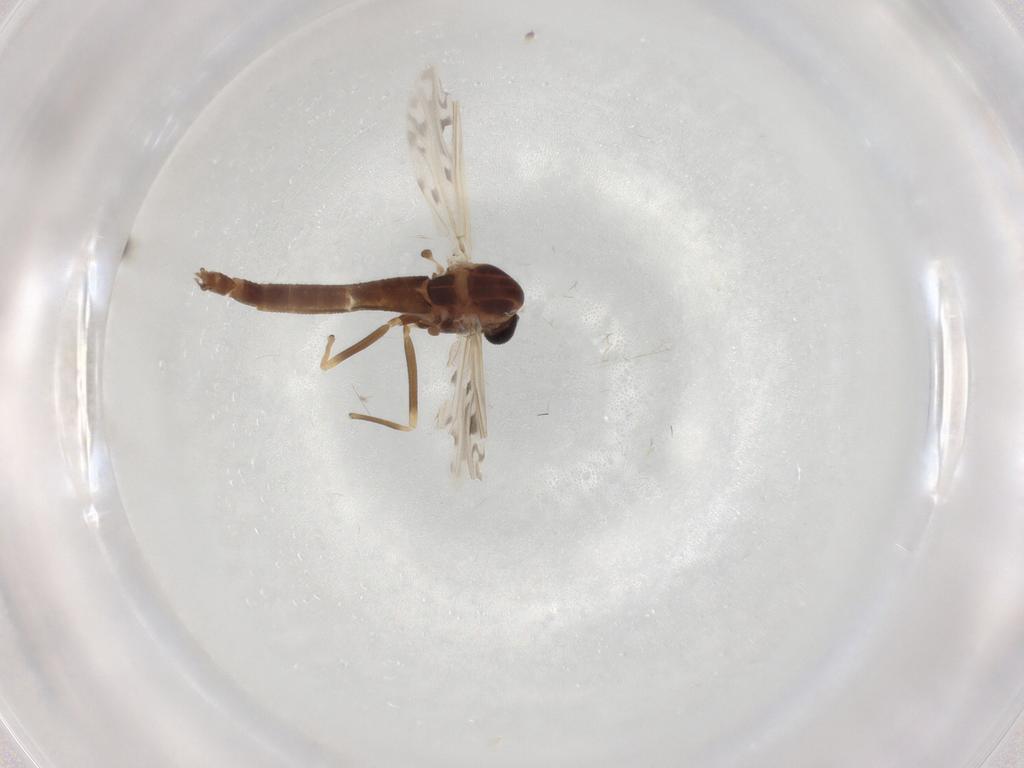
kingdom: Animalia
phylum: Arthropoda
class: Insecta
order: Diptera
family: Chironomidae
